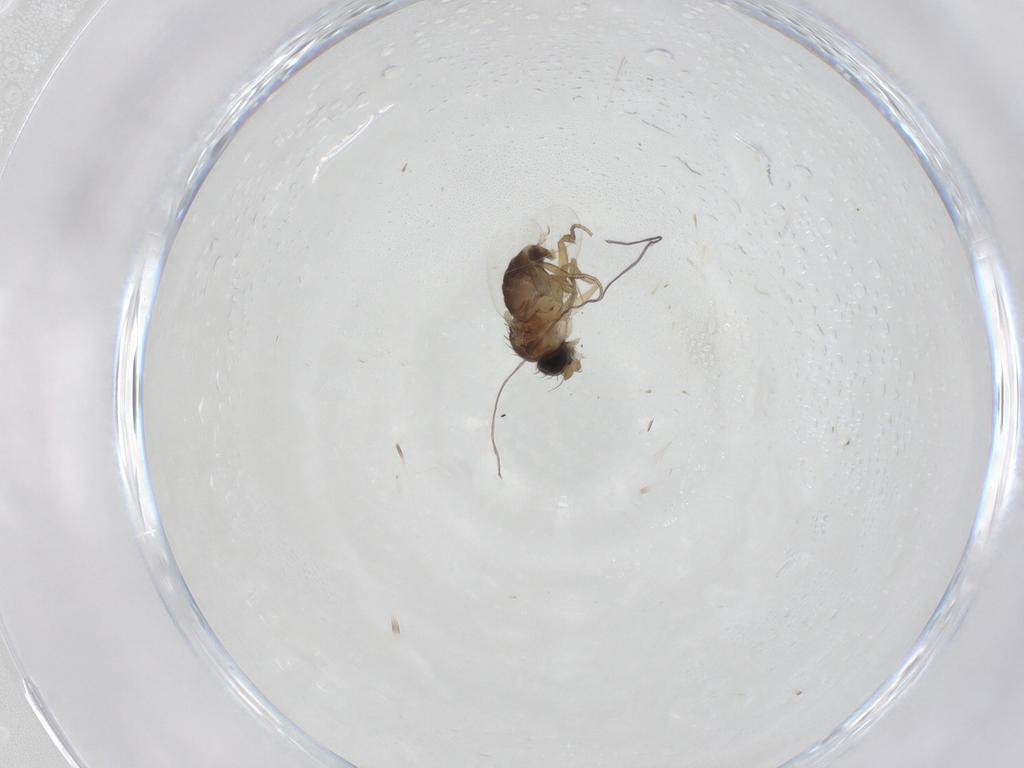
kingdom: Animalia
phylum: Arthropoda
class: Insecta
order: Diptera
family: Phoridae
